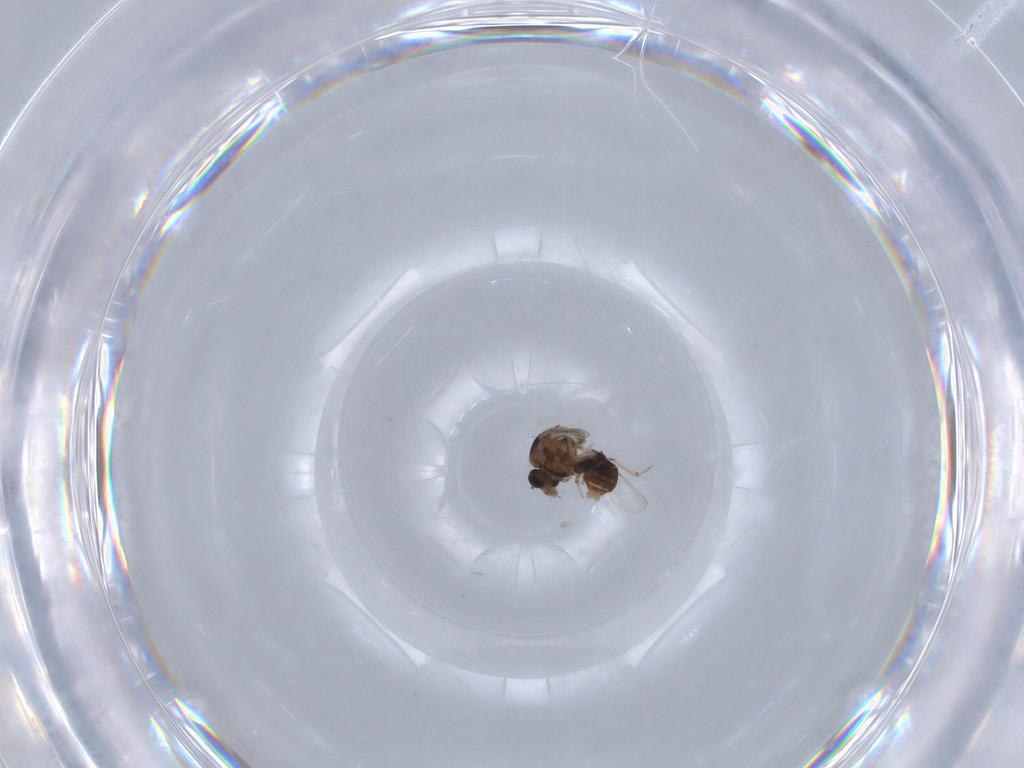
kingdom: Animalia
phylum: Arthropoda
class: Insecta
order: Diptera
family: Ceratopogonidae
